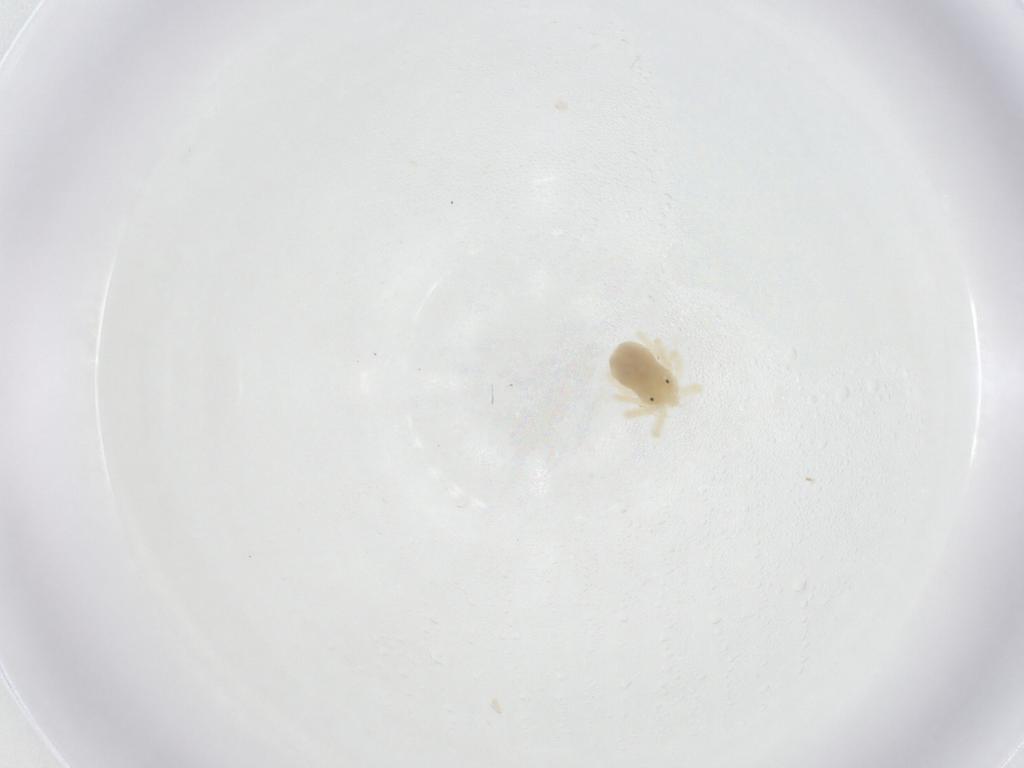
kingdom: Animalia
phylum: Arthropoda
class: Arachnida
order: Trombidiformes
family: Anystidae
